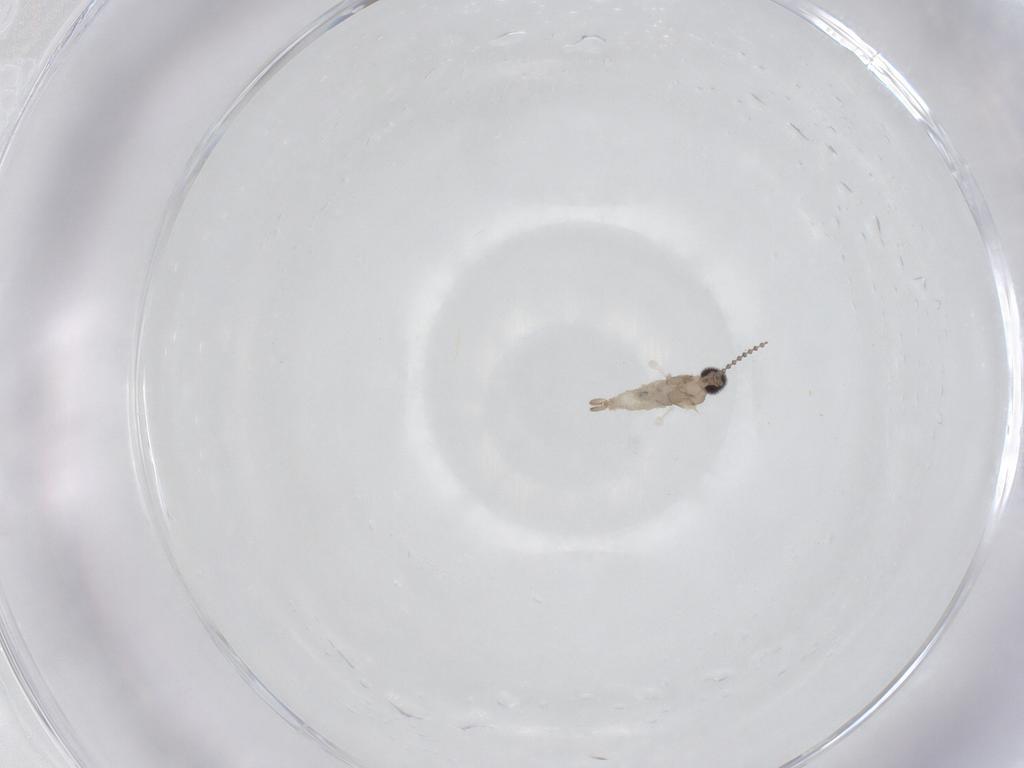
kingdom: Animalia
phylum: Arthropoda
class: Insecta
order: Diptera
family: Cecidomyiidae
